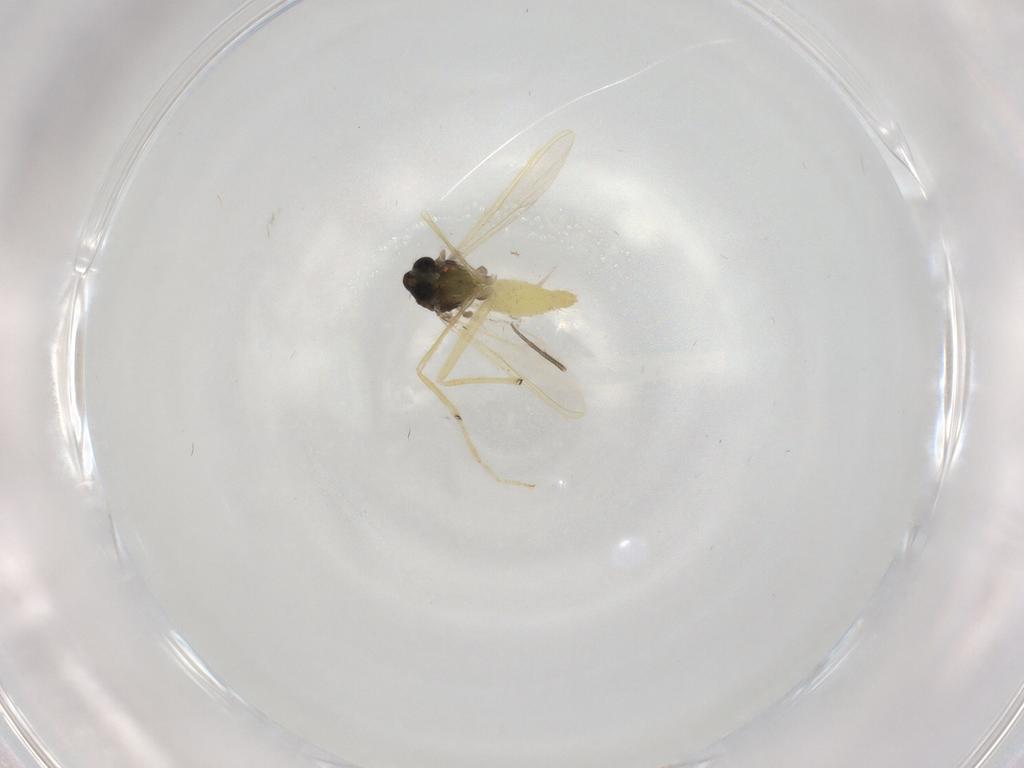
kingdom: Animalia
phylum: Arthropoda
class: Insecta
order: Diptera
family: Chironomidae
